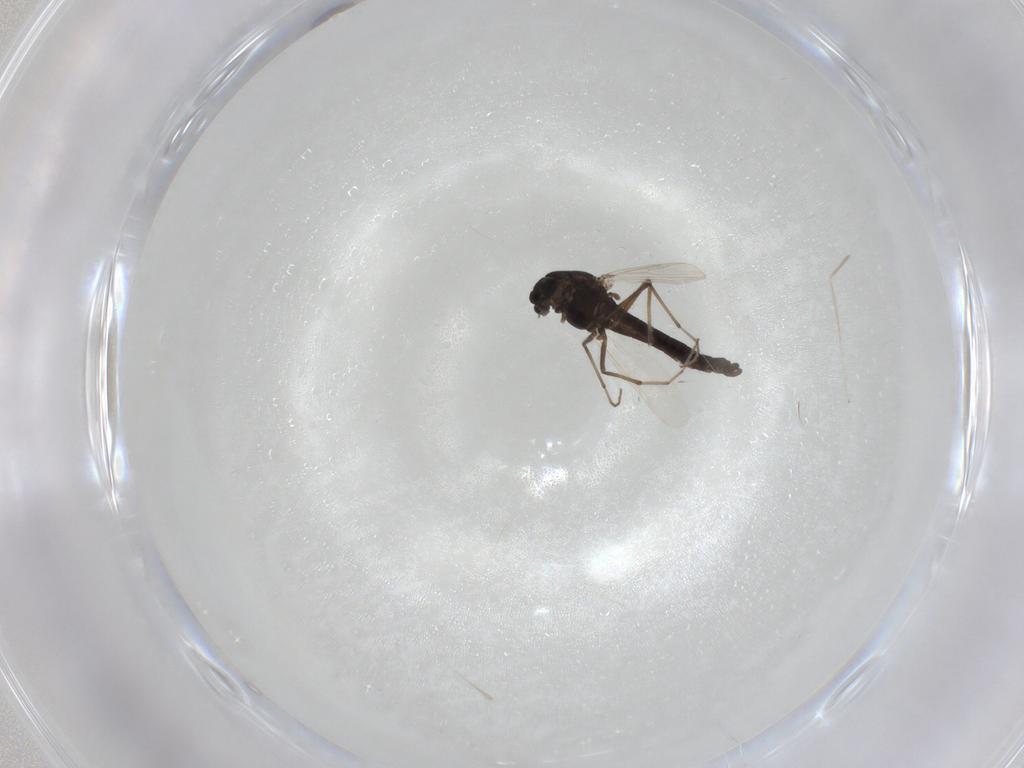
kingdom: Animalia
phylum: Arthropoda
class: Insecta
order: Diptera
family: Chironomidae
